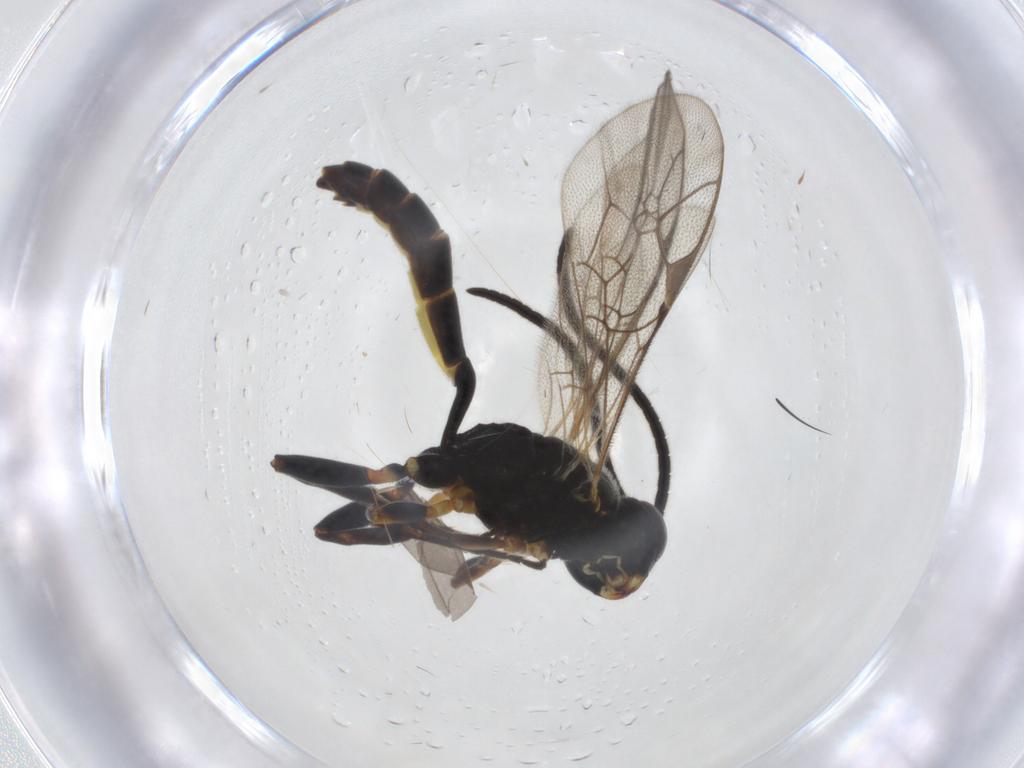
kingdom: Animalia
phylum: Arthropoda
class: Insecta
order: Hymenoptera
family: Ichneumonidae
